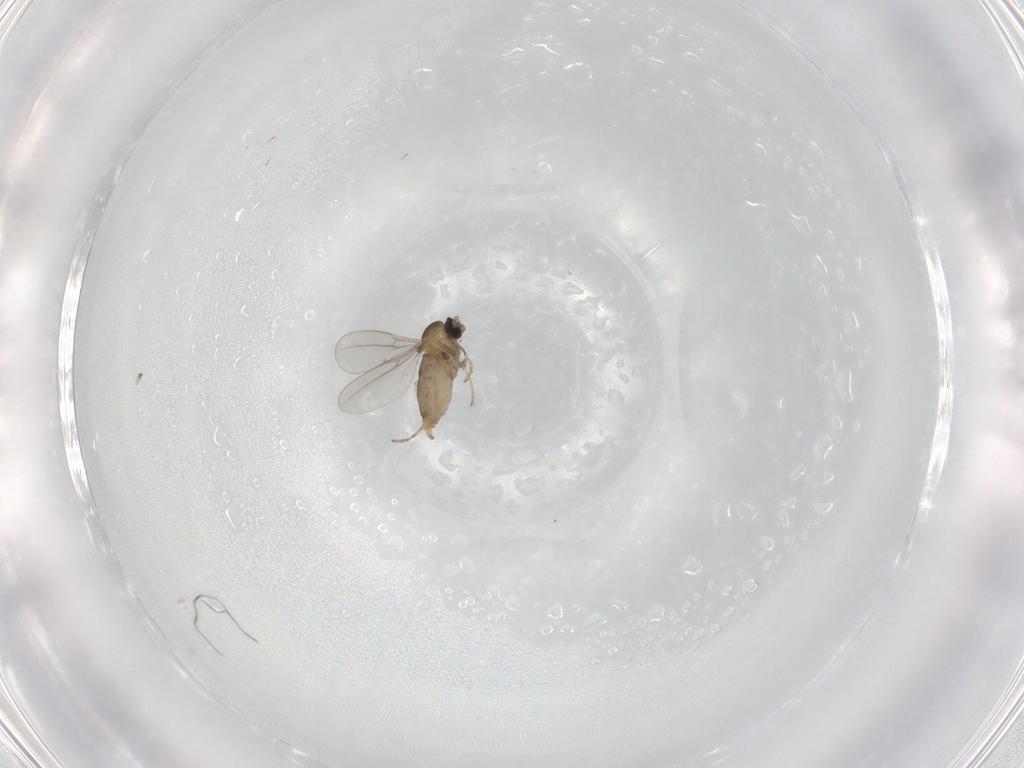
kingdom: Animalia
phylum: Arthropoda
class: Insecta
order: Diptera
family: Cecidomyiidae
